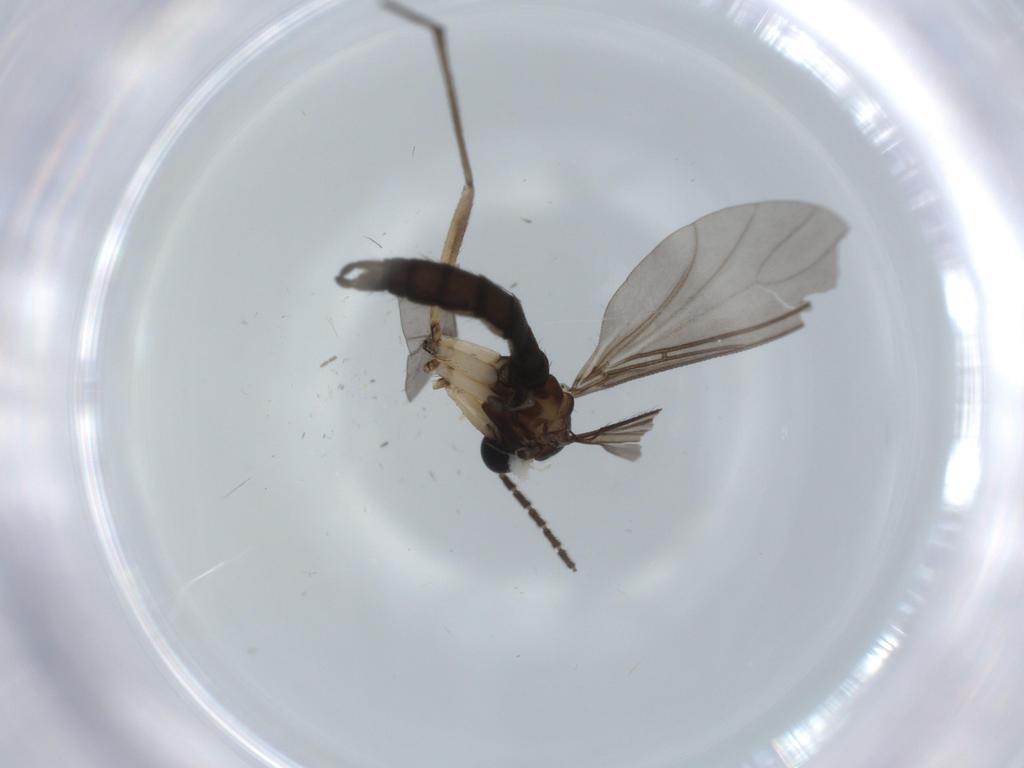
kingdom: Animalia
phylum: Arthropoda
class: Insecta
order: Diptera
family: Sciaridae
